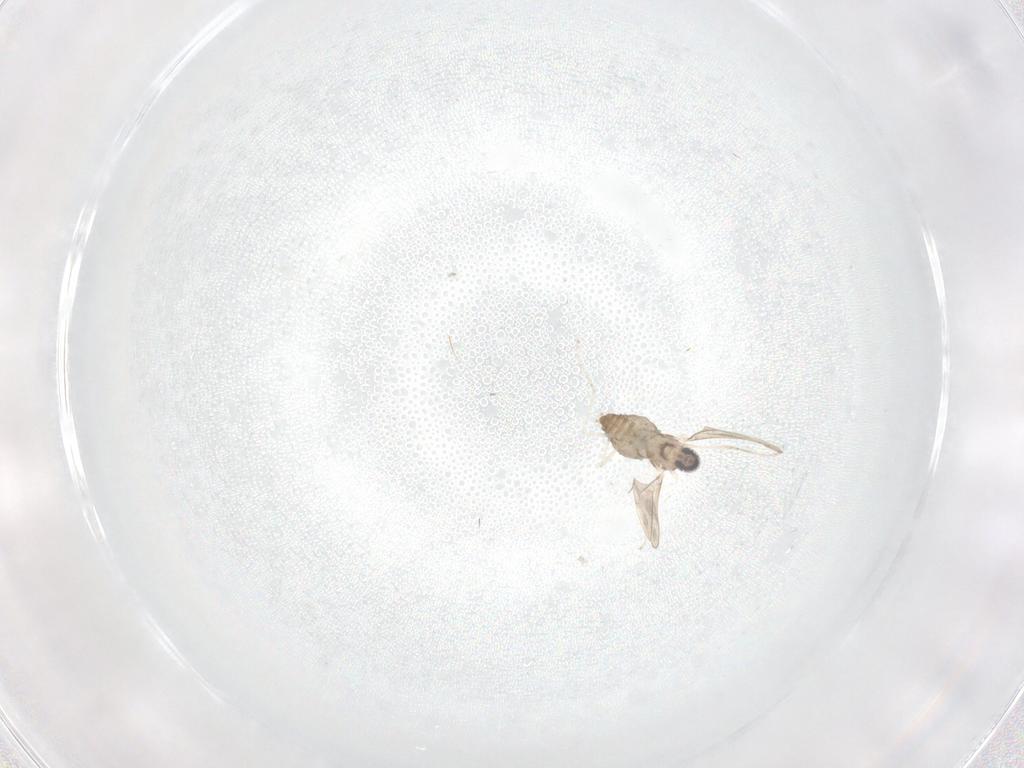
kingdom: Animalia
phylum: Arthropoda
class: Insecta
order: Diptera
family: Cecidomyiidae
